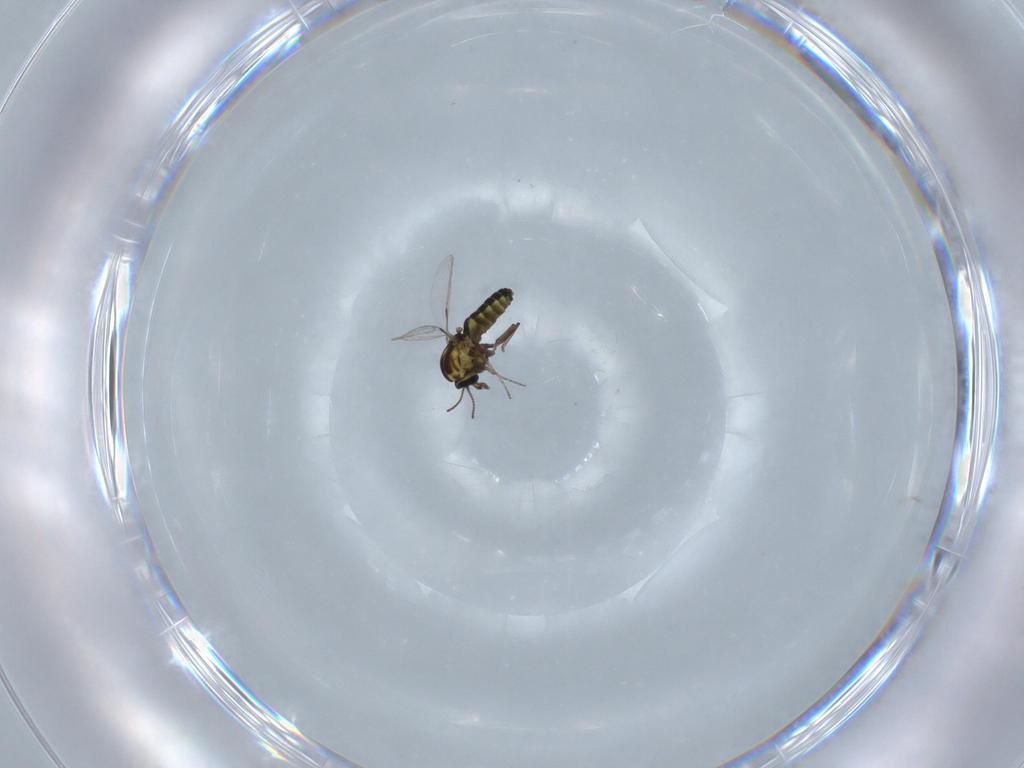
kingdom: Animalia
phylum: Arthropoda
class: Insecta
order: Diptera
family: Ceratopogonidae
